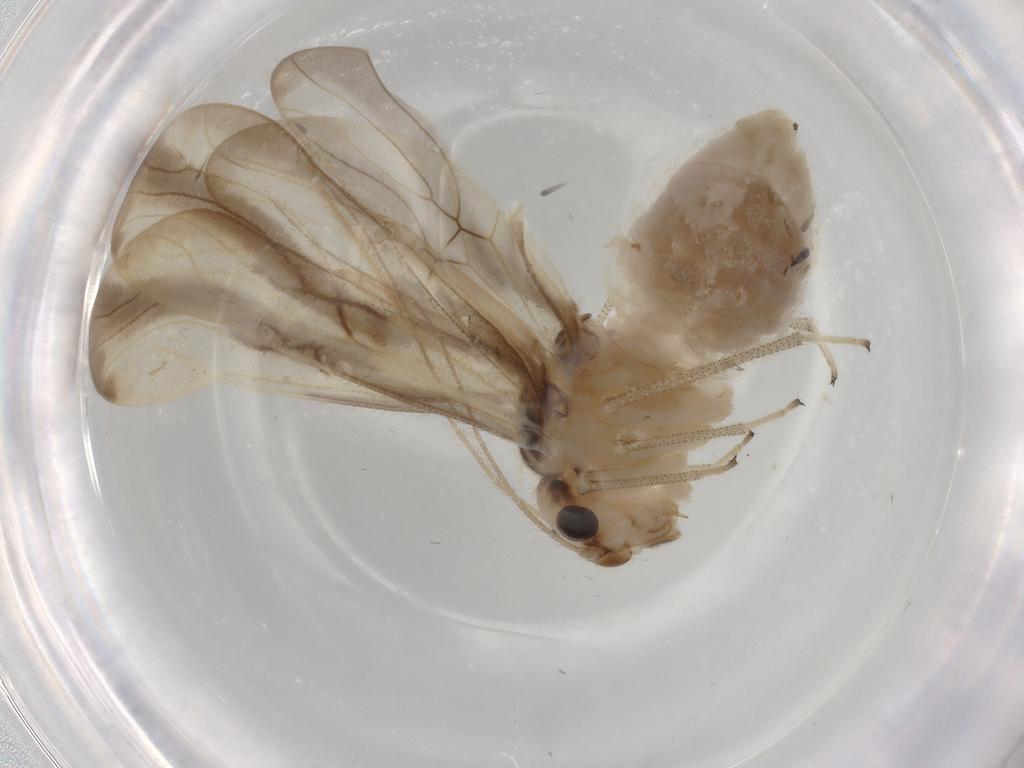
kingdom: Animalia
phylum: Arthropoda
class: Insecta
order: Psocodea
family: Amphipsocidae
